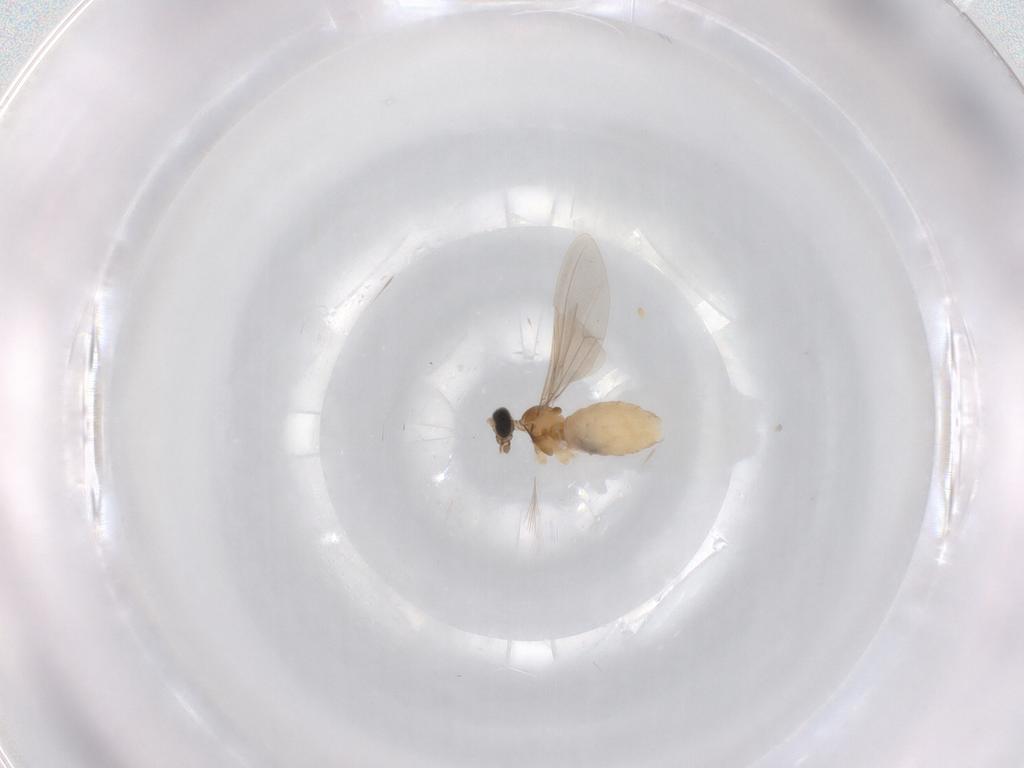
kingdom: Animalia
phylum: Arthropoda
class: Insecta
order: Diptera
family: Cecidomyiidae
